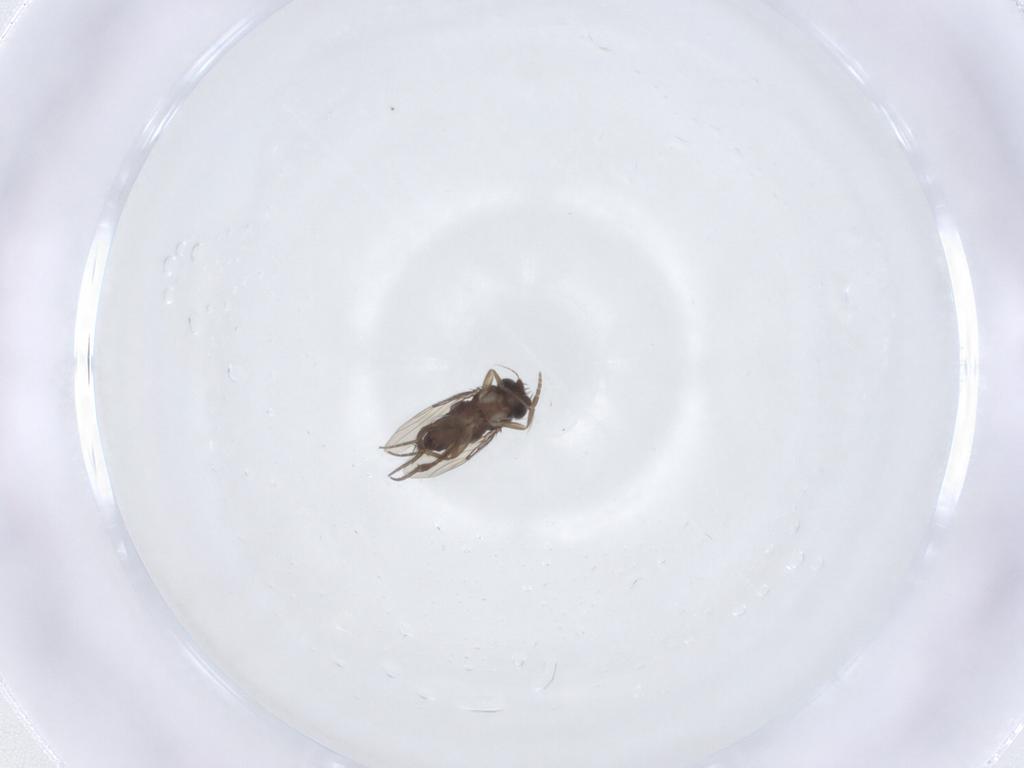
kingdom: Animalia
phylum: Arthropoda
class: Insecta
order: Diptera
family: Phoridae
